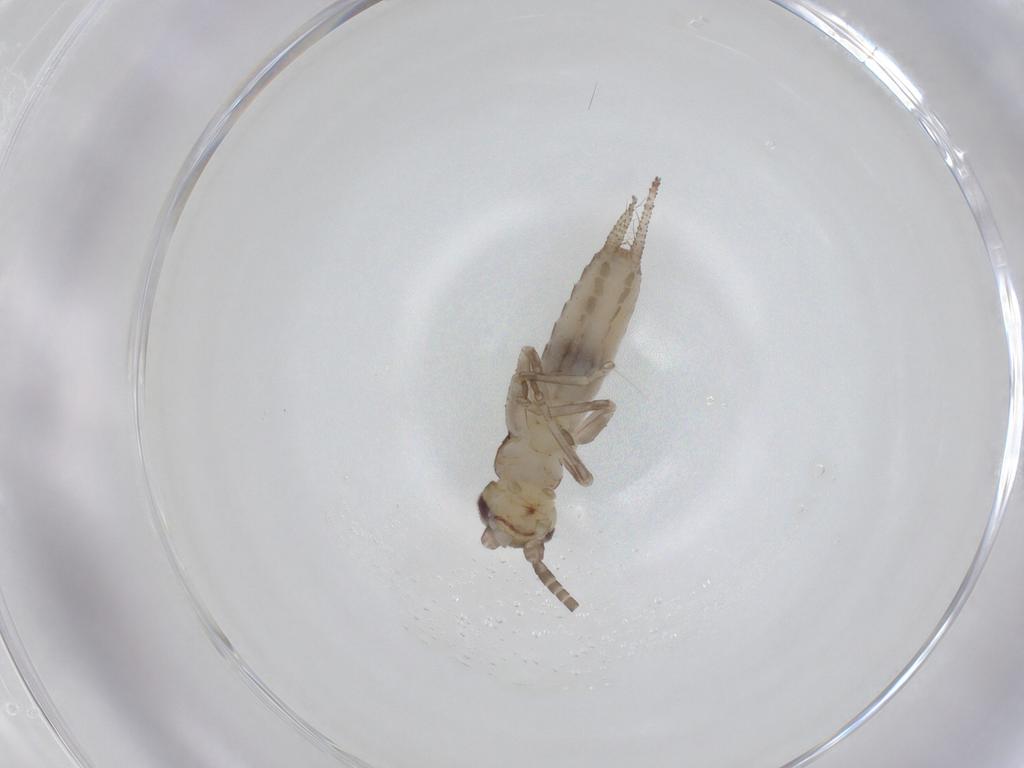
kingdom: Animalia
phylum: Arthropoda
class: Insecta
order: Orthoptera
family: Gryllidae
